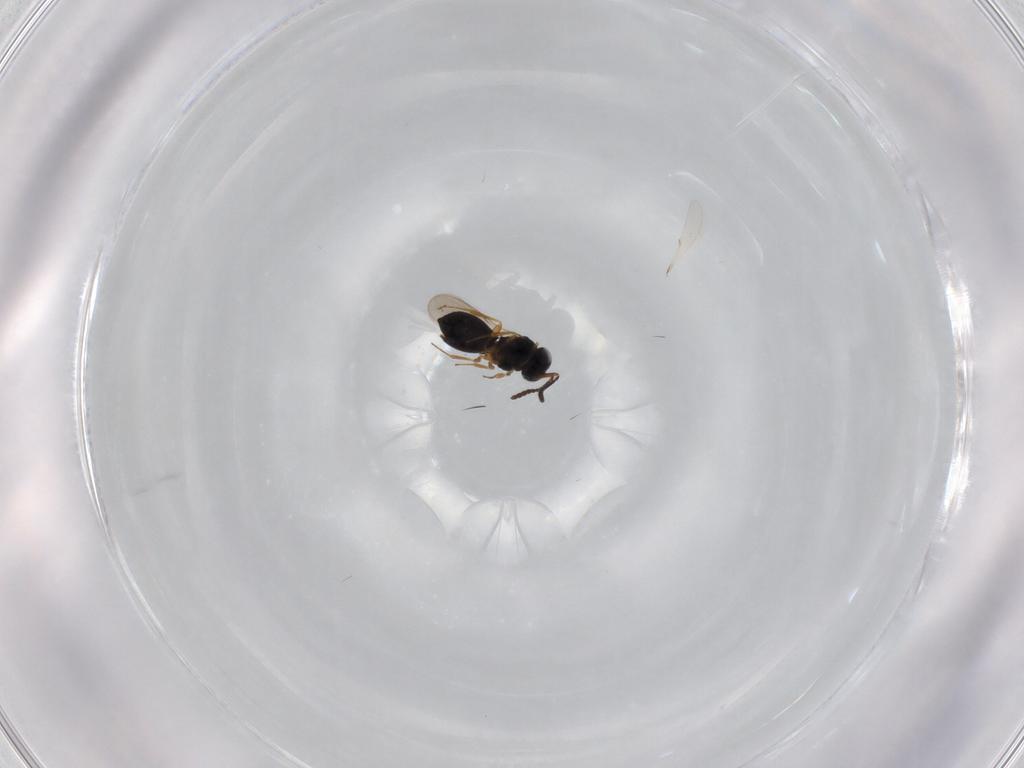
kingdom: Animalia
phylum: Arthropoda
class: Insecta
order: Hymenoptera
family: Scelionidae
